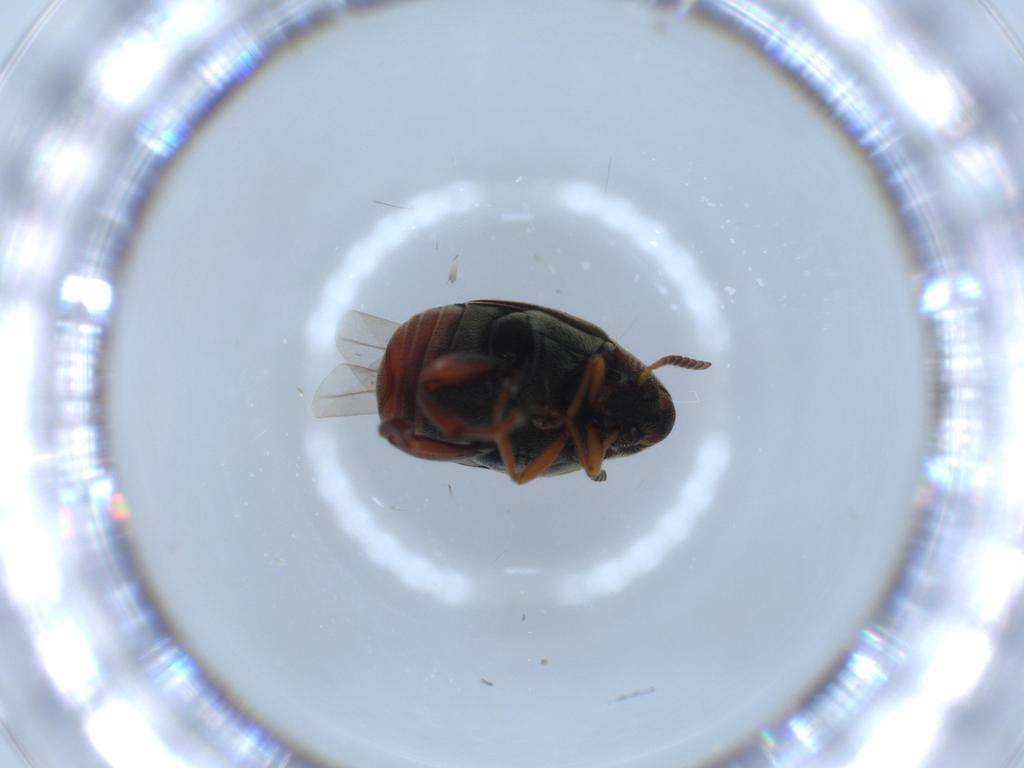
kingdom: Animalia
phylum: Arthropoda
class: Insecta
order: Coleoptera
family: Chrysomelidae
